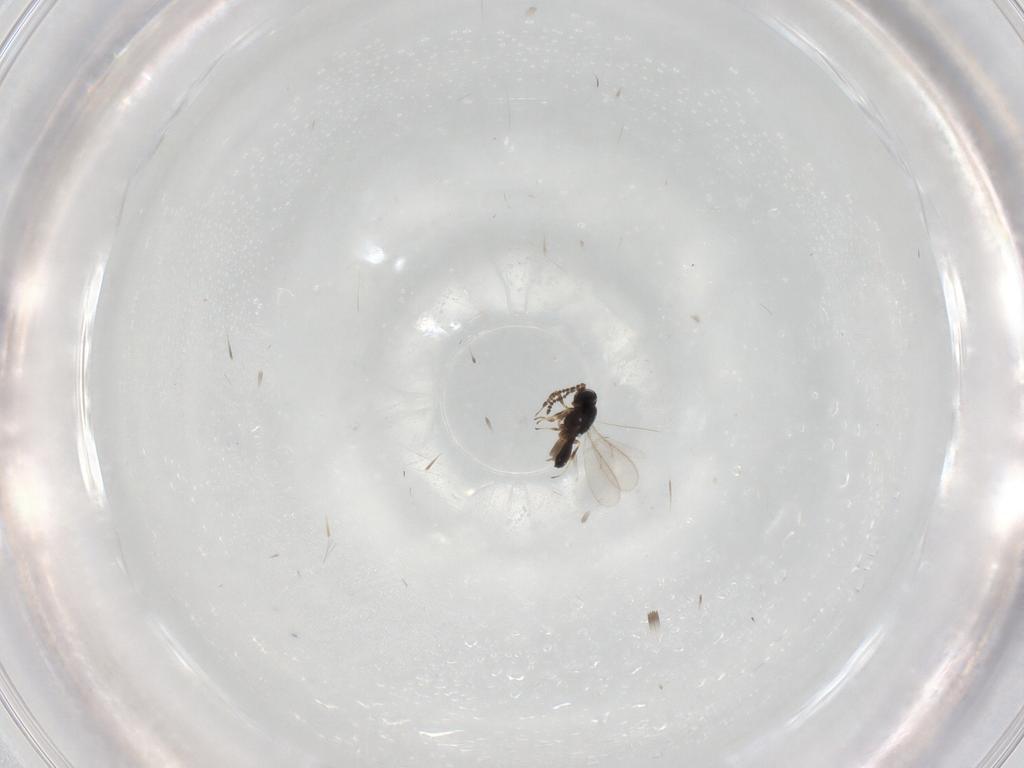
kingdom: Animalia
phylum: Arthropoda
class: Insecta
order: Hymenoptera
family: Scelionidae
